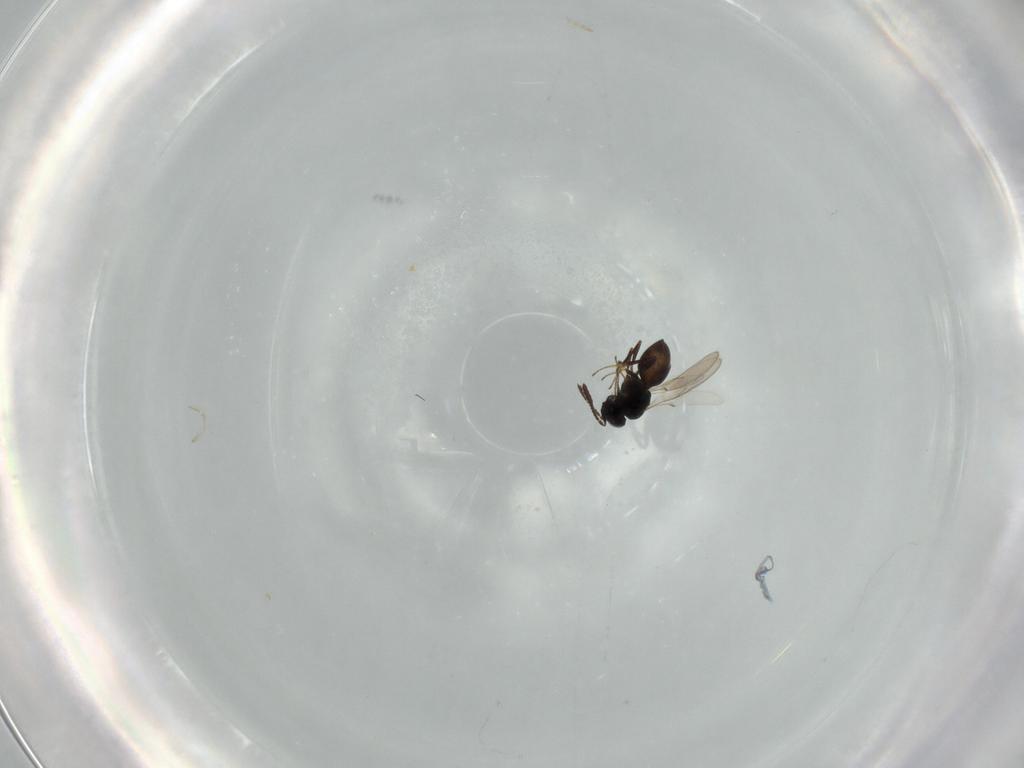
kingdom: Animalia
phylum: Arthropoda
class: Insecta
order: Hymenoptera
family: Scelionidae
